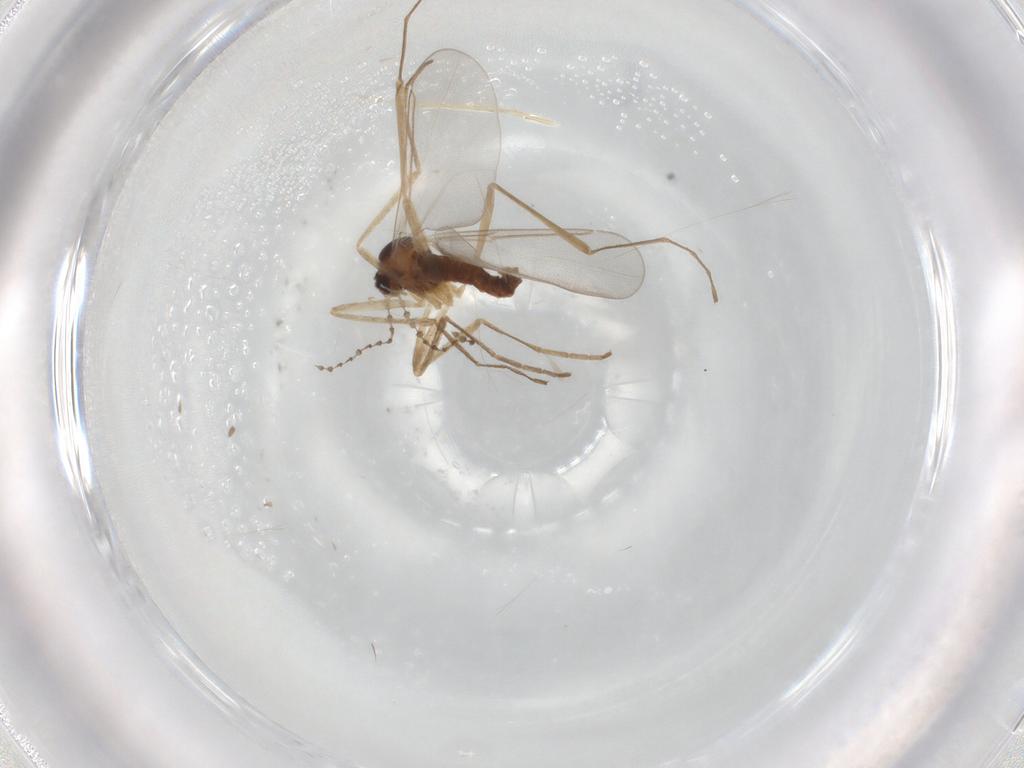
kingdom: Animalia
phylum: Arthropoda
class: Insecta
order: Diptera
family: Cecidomyiidae
